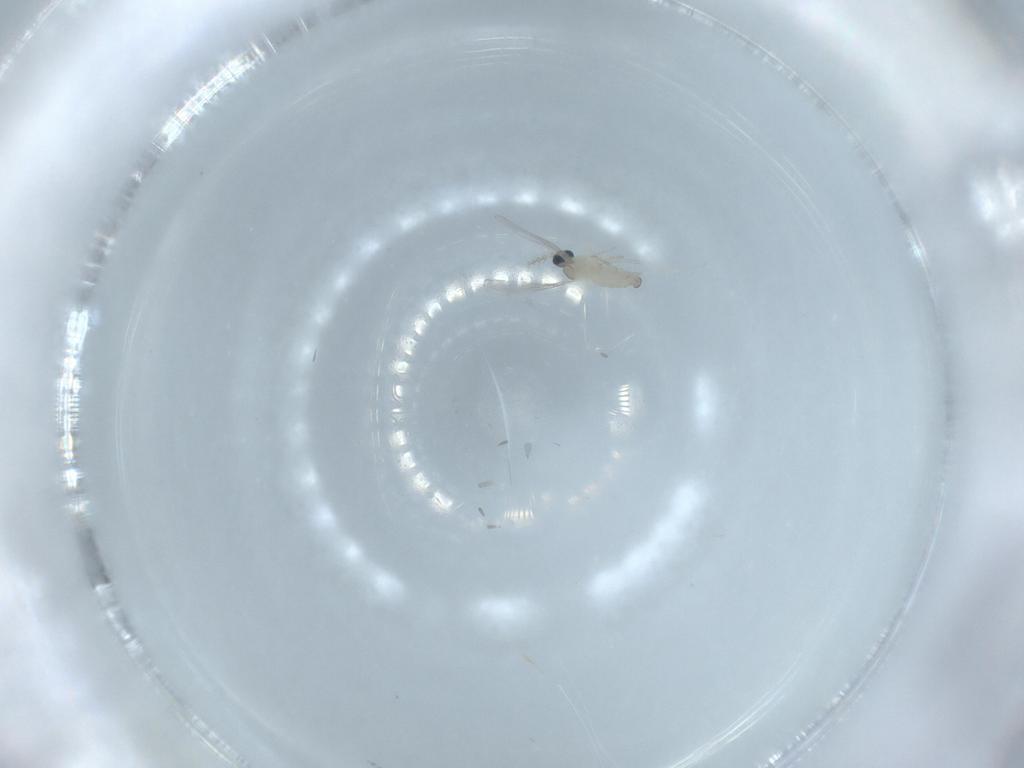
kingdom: Animalia
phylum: Arthropoda
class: Insecta
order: Diptera
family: Cecidomyiidae
